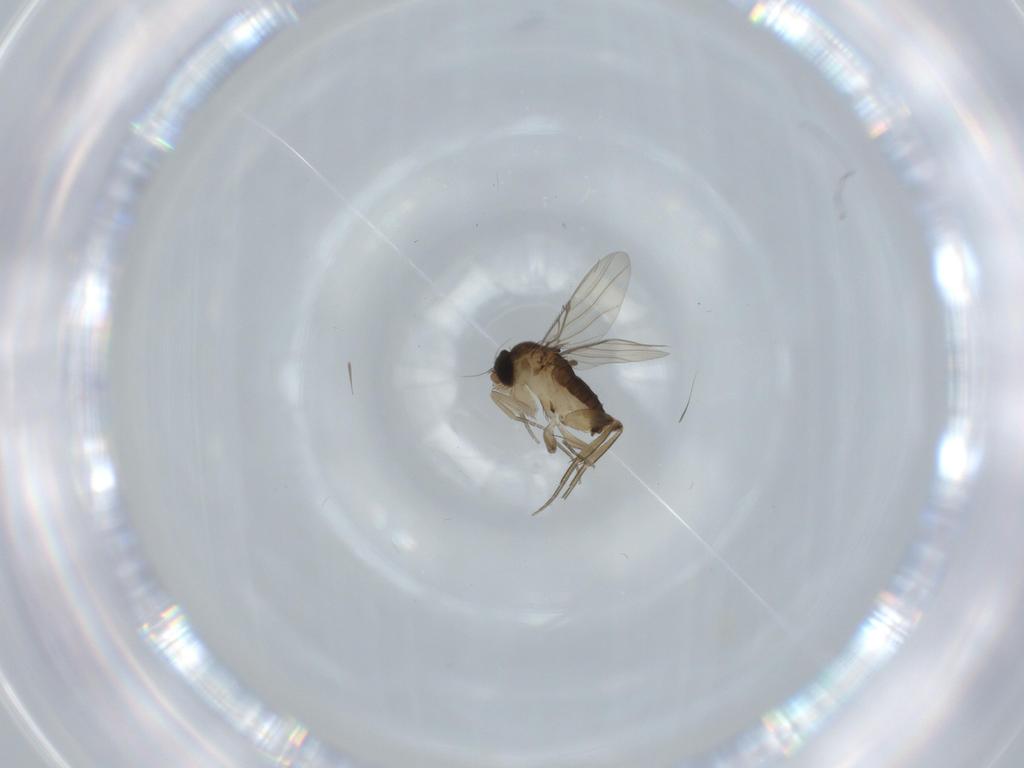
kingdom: Animalia
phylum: Arthropoda
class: Insecta
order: Diptera
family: Phoridae
